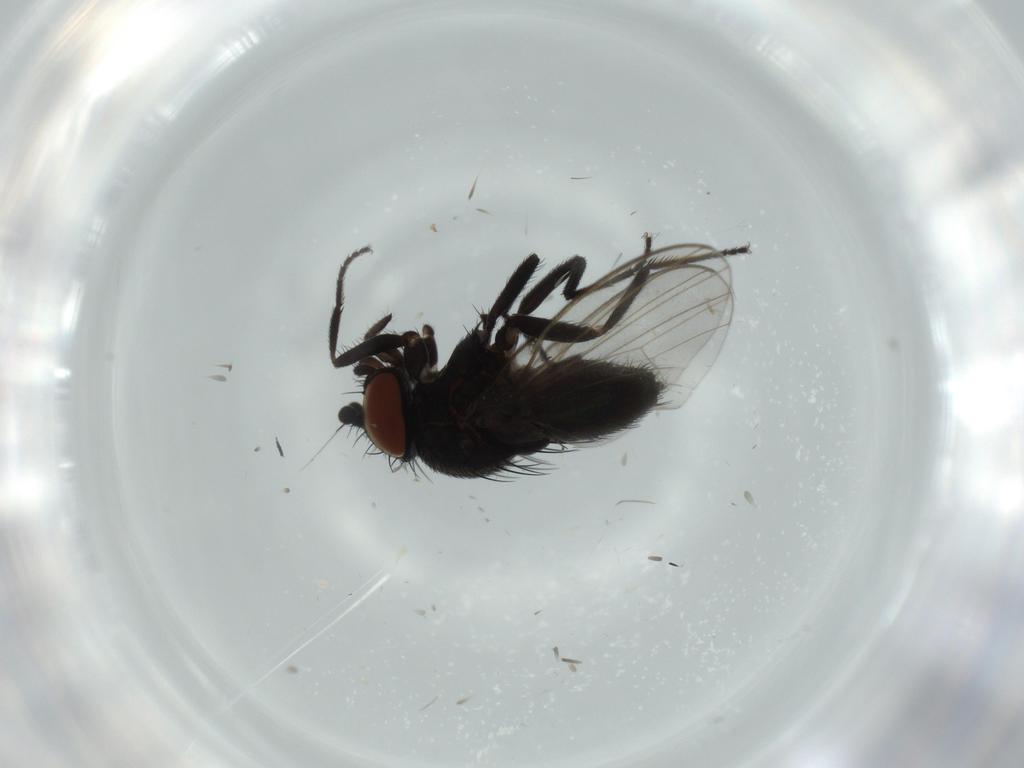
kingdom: Animalia
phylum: Arthropoda
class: Insecta
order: Diptera
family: Milichiidae
